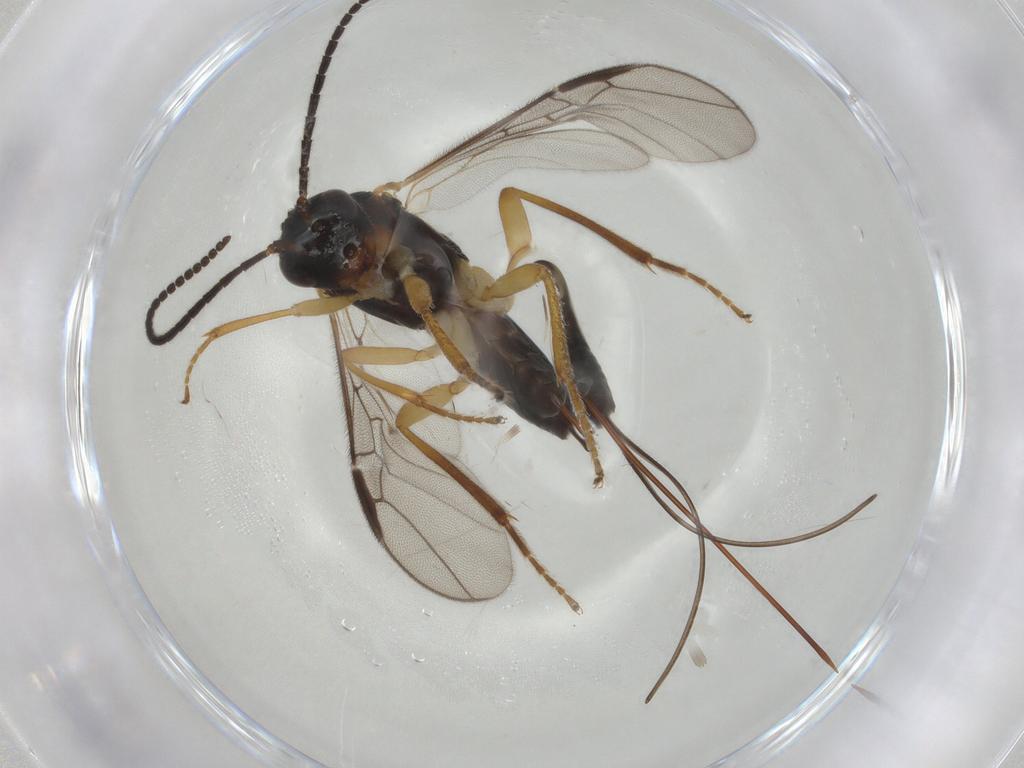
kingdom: Animalia
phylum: Arthropoda
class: Insecta
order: Hymenoptera
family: Braconidae
